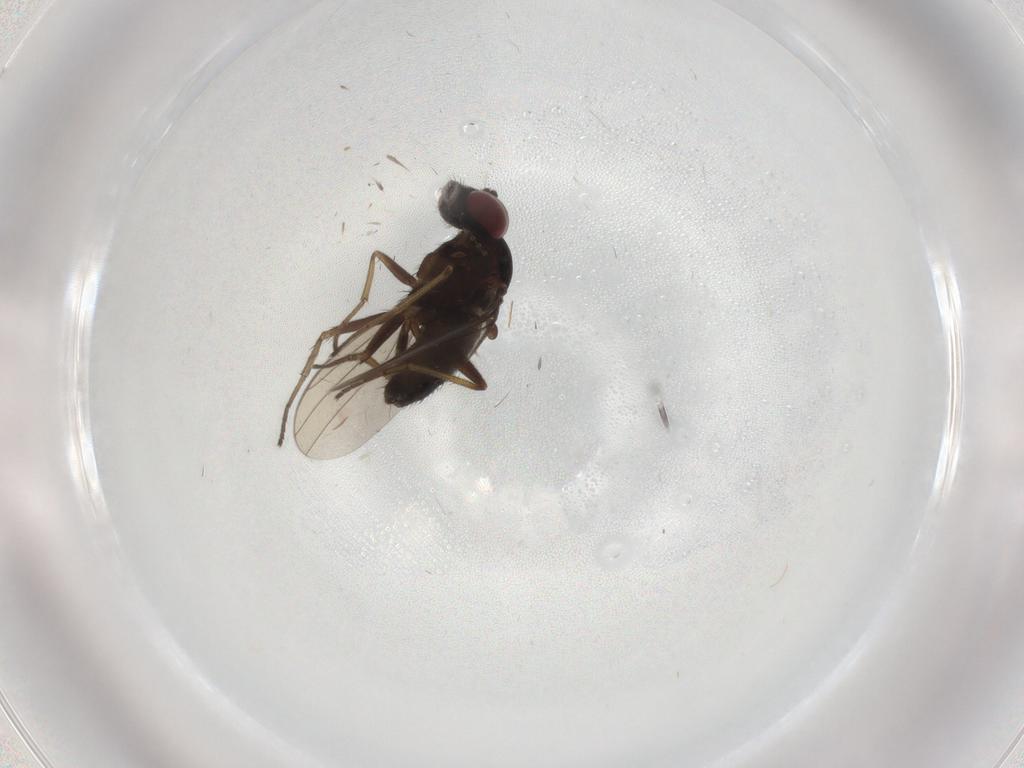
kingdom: Animalia
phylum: Arthropoda
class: Insecta
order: Diptera
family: Dolichopodidae
